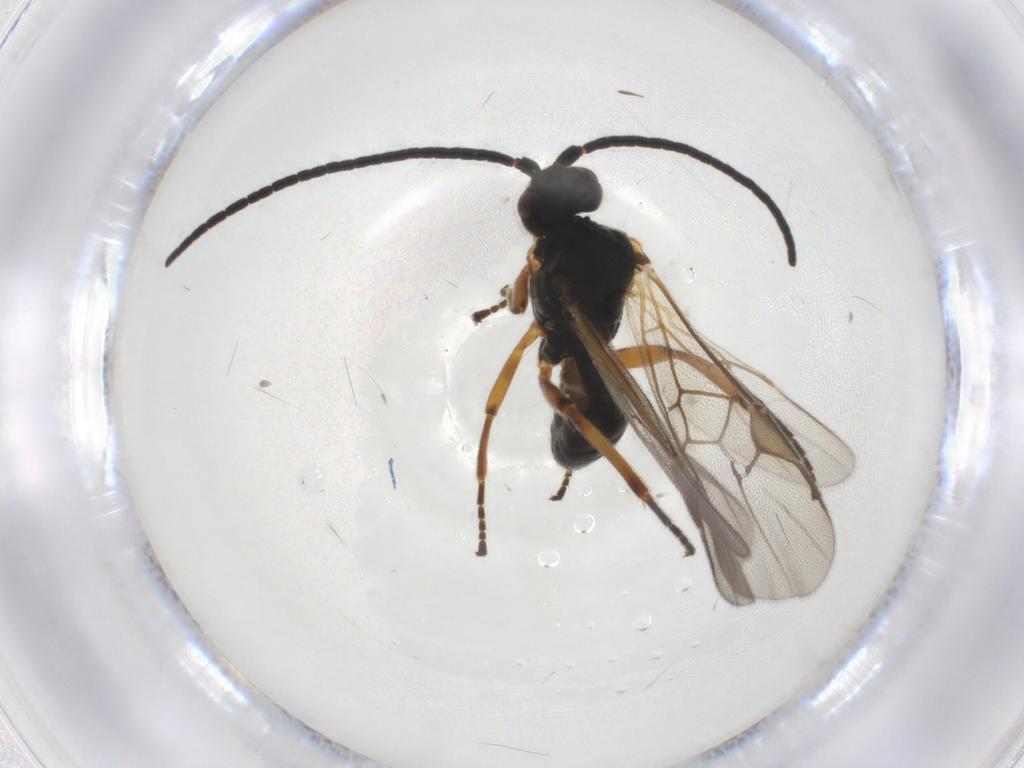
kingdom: Animalia
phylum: Arthropoda
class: Insecta
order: Hymenoptera
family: Braconidae
